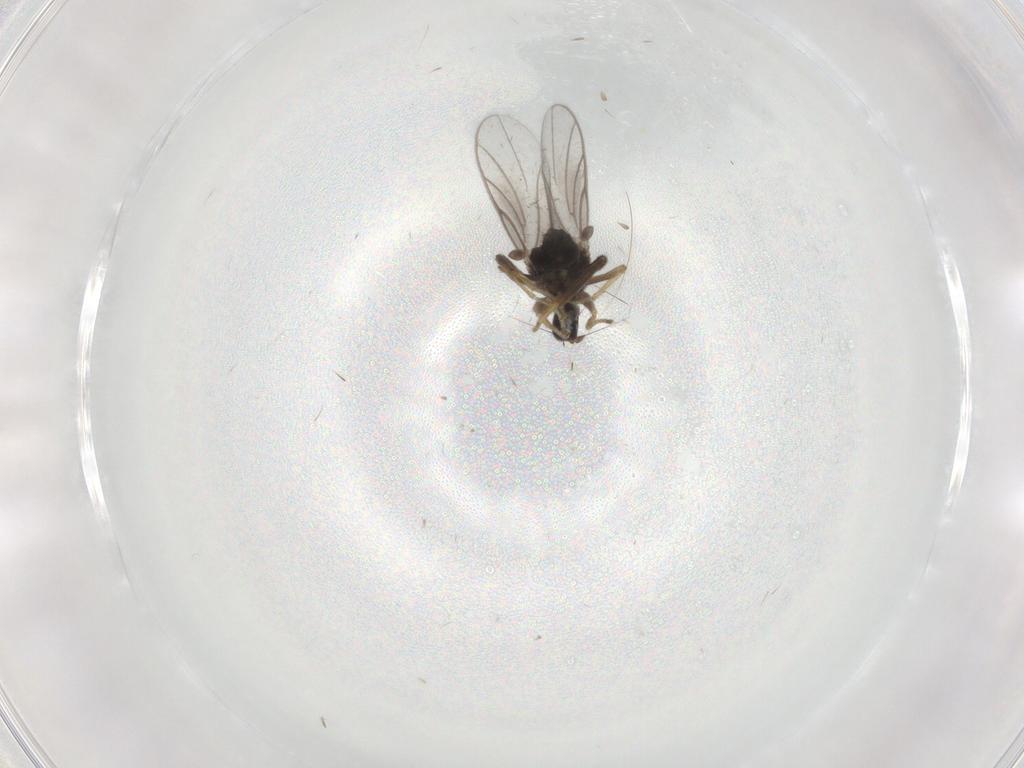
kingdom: Animalia
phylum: Arthropoda
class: Insecta
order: Diptera
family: Hybotidae
